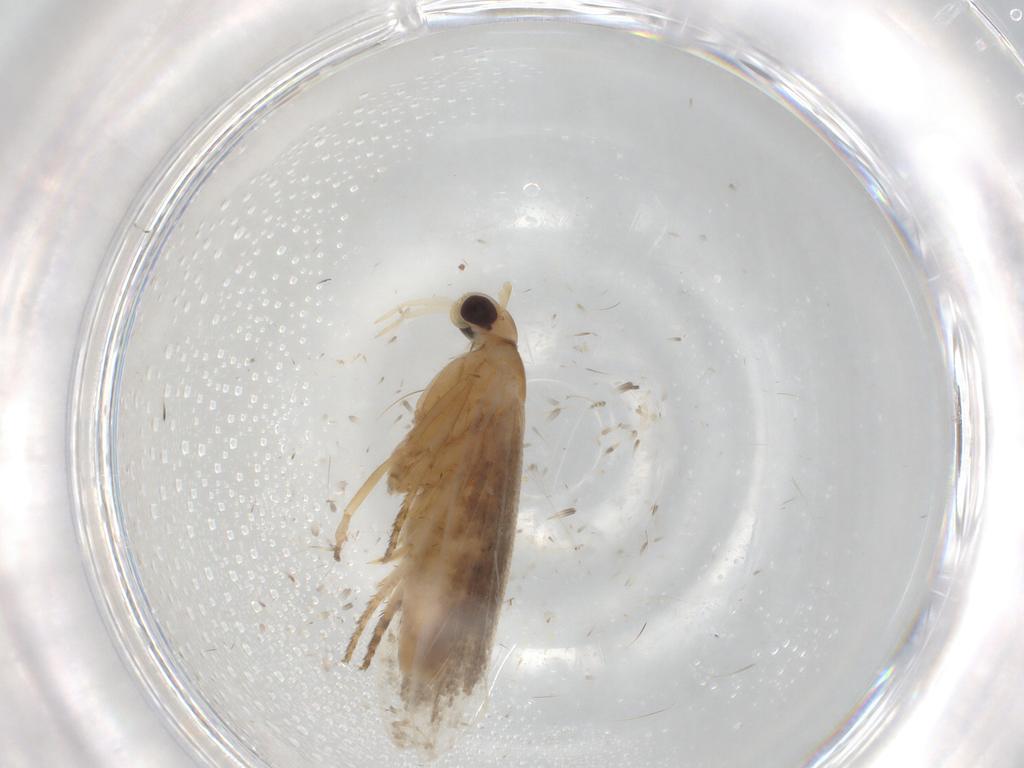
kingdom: Animalia
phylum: Arthropoda
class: Insecta
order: Lepidoptera
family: Plutellidae
